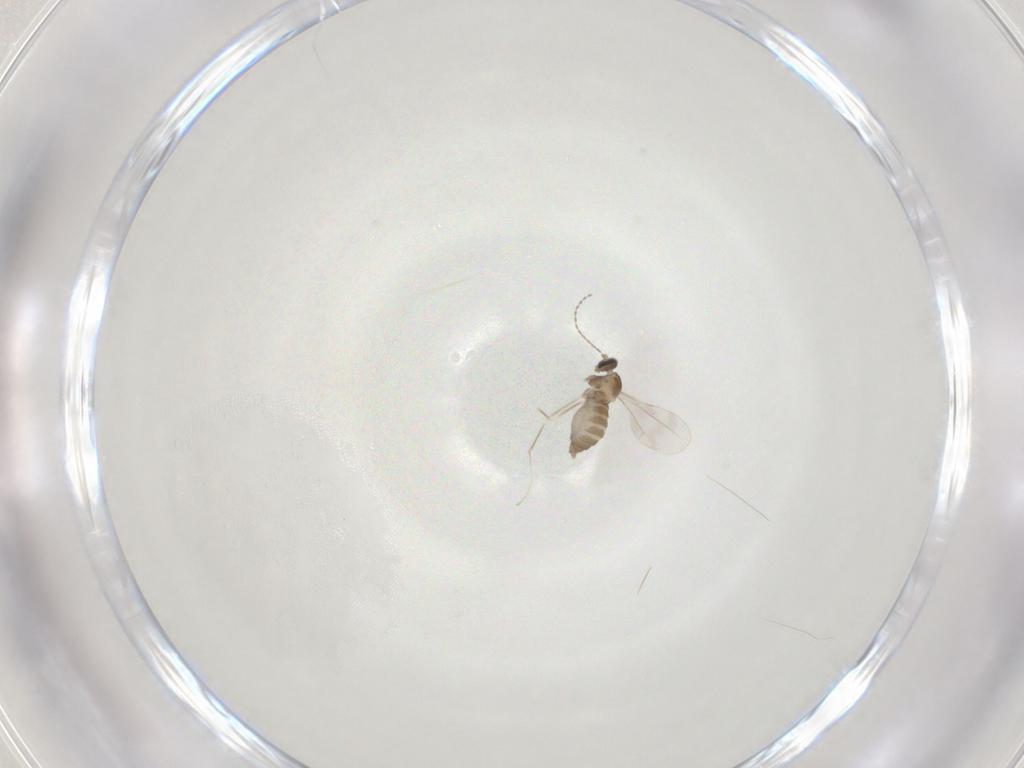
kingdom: Animalia
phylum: Arthropoda
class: Insecta
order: Diptera
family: Cecidomyiidae
